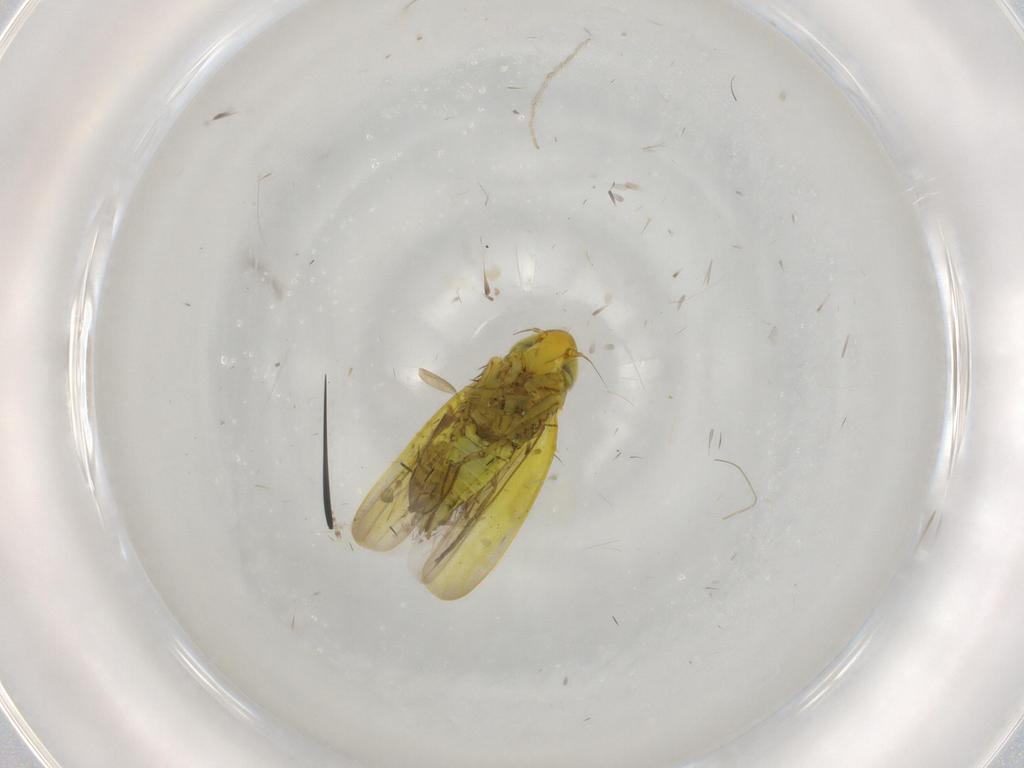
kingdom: Animalia
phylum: Arthropoda
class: Insecta
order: Hemiptera
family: Cicadellidae
